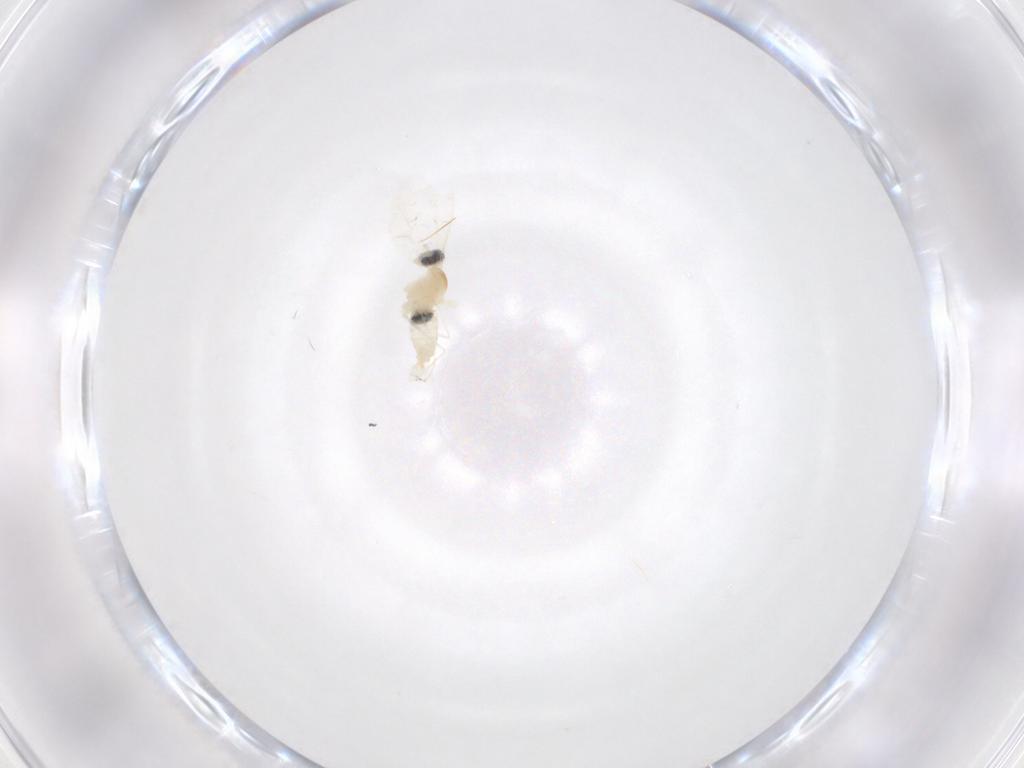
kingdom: Animalia
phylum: Arthropoda
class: Insecta
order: Diptera
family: Cecidomyiidae
